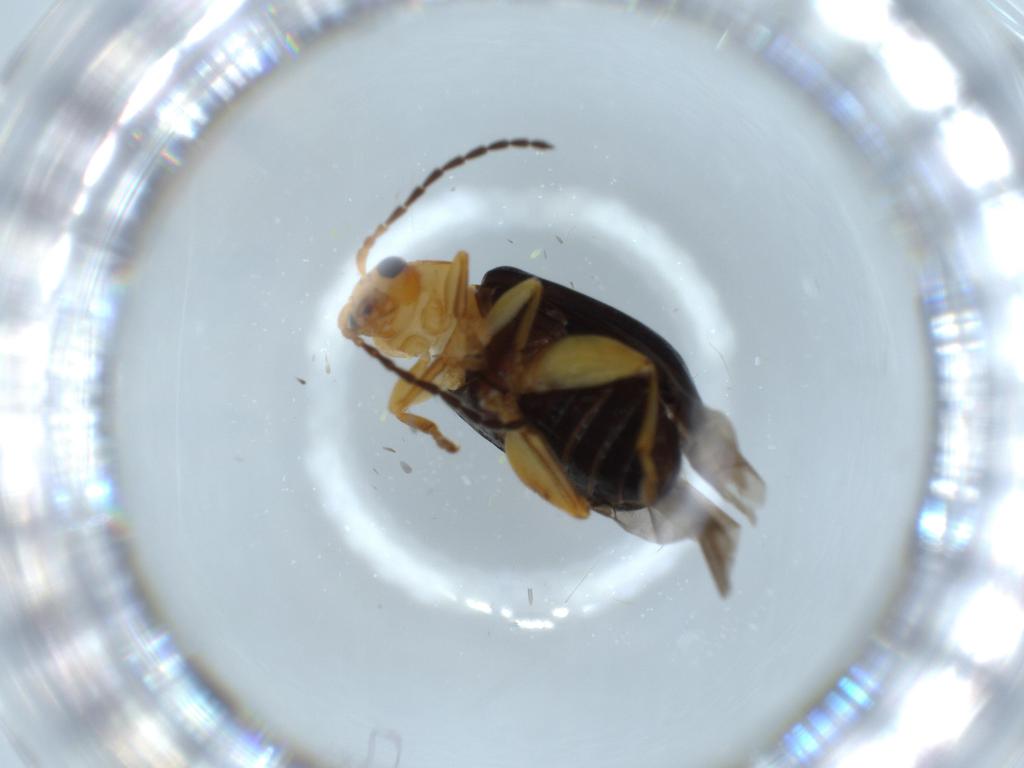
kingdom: Animalia
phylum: Arthropoda
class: Insecta
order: Coleoptera
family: Chrysomelidae
